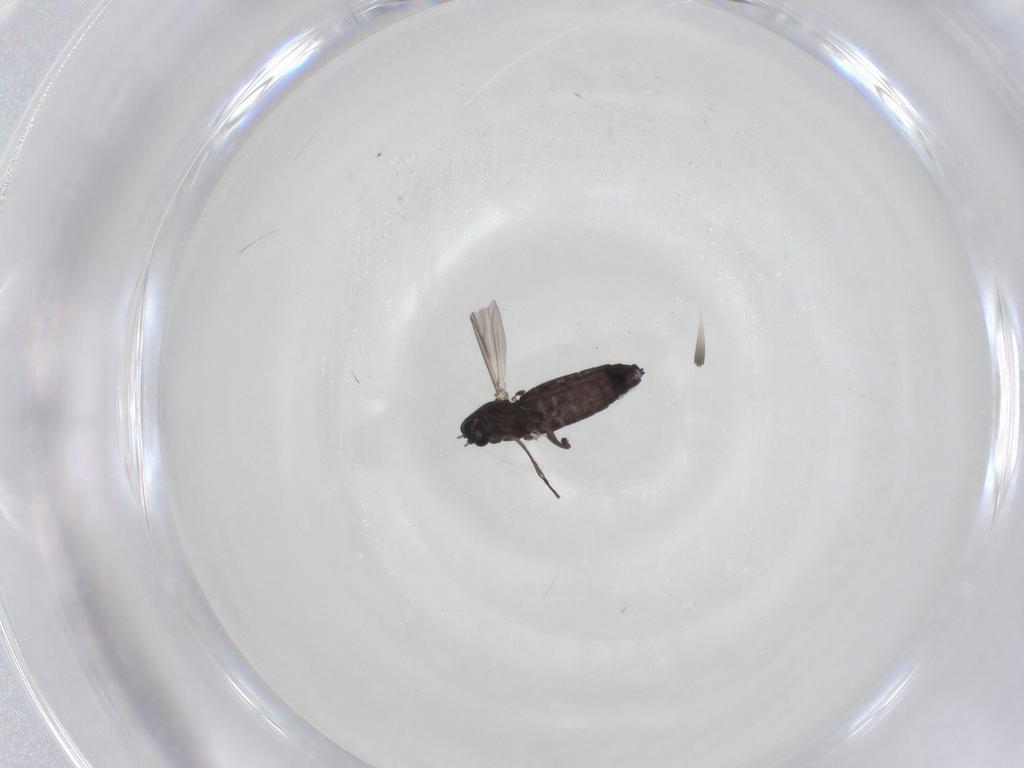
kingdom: Animalia
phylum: Arthropoda
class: Insecta
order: Diptera
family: Chironomidae
